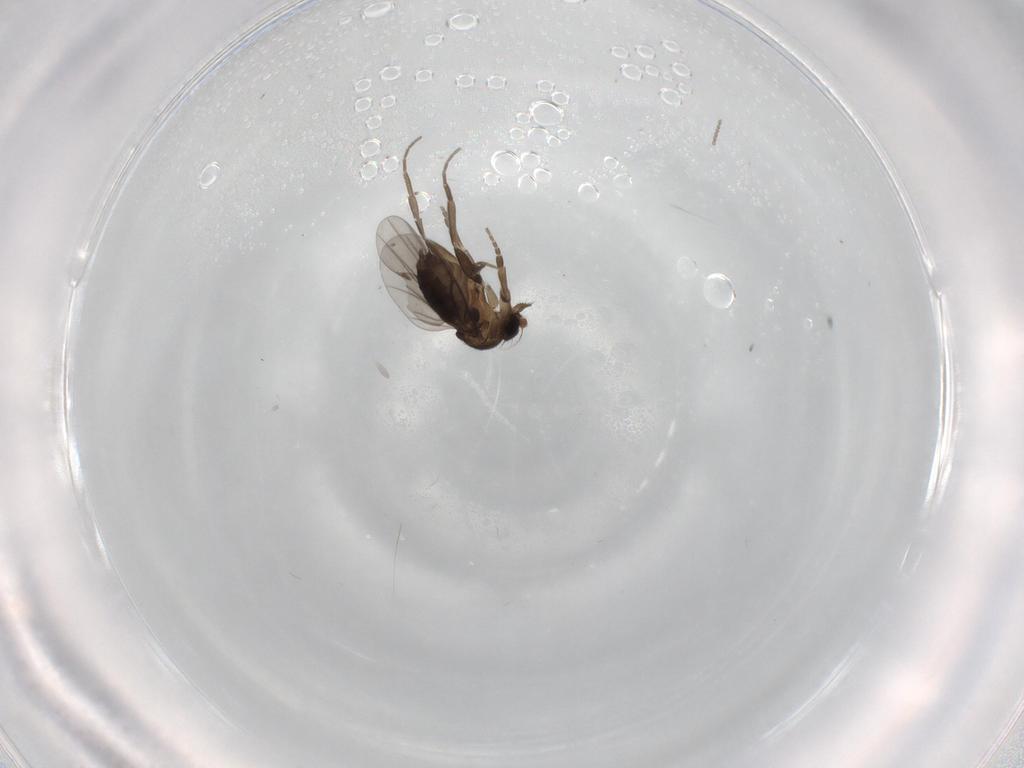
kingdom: Animalia
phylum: Arthropoda
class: Insecta
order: Diptera
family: Phoridae
